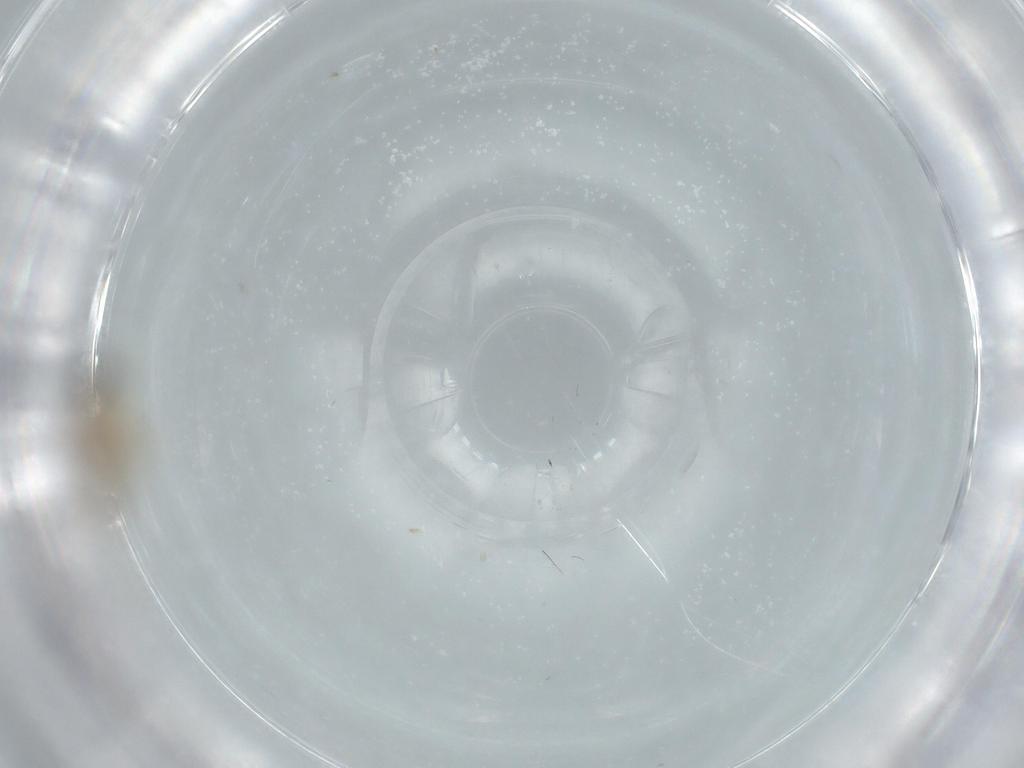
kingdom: Animalia
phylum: Arthropoda
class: Insecta
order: Diptera
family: Cecidomyiidae
